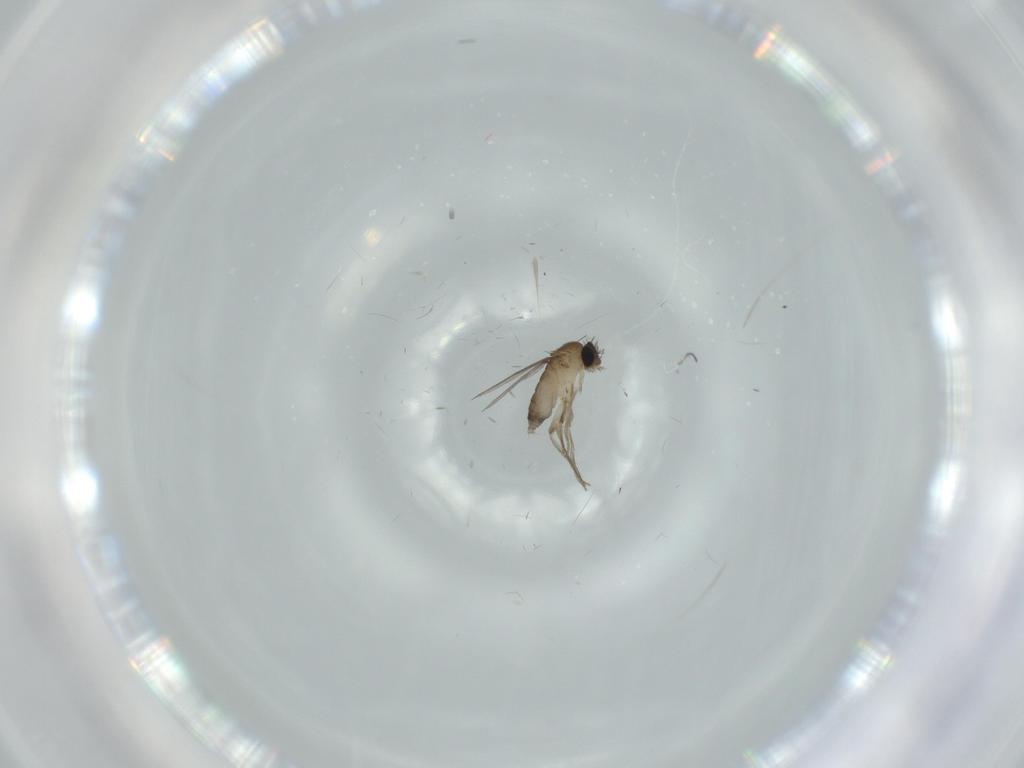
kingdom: Animalia
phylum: Arthropoda
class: Insecta
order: Diptera
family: Phoridae
